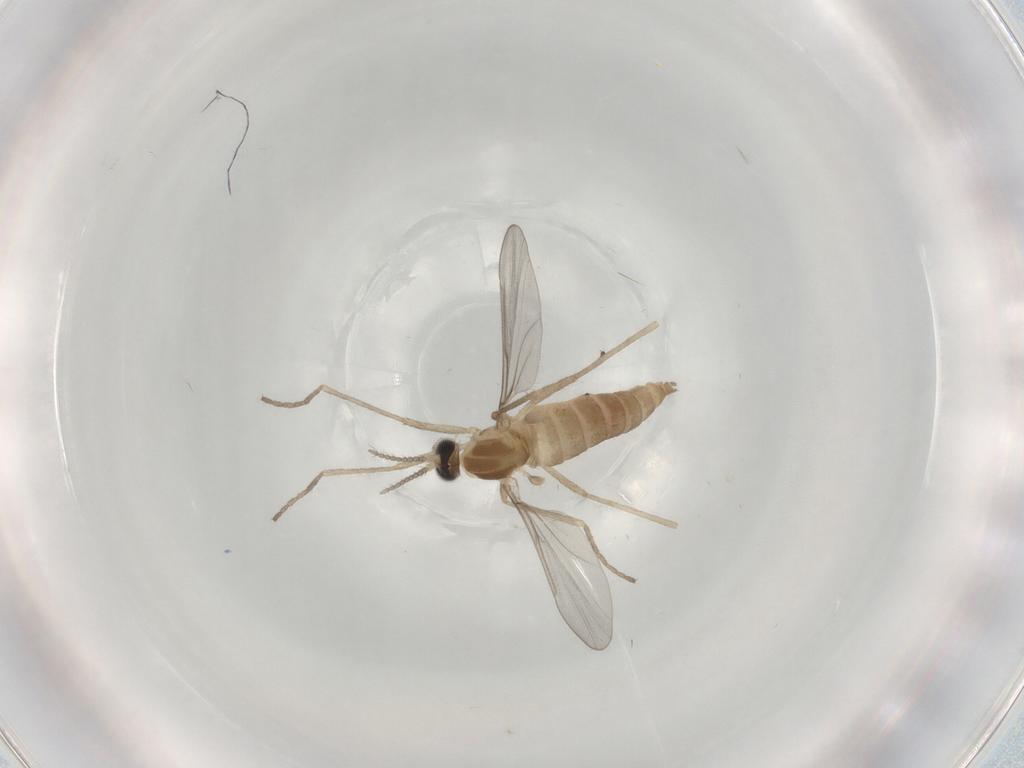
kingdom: Animalia
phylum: Arthropoda
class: Insecta
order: Diptera
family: Cecidomyiidae
